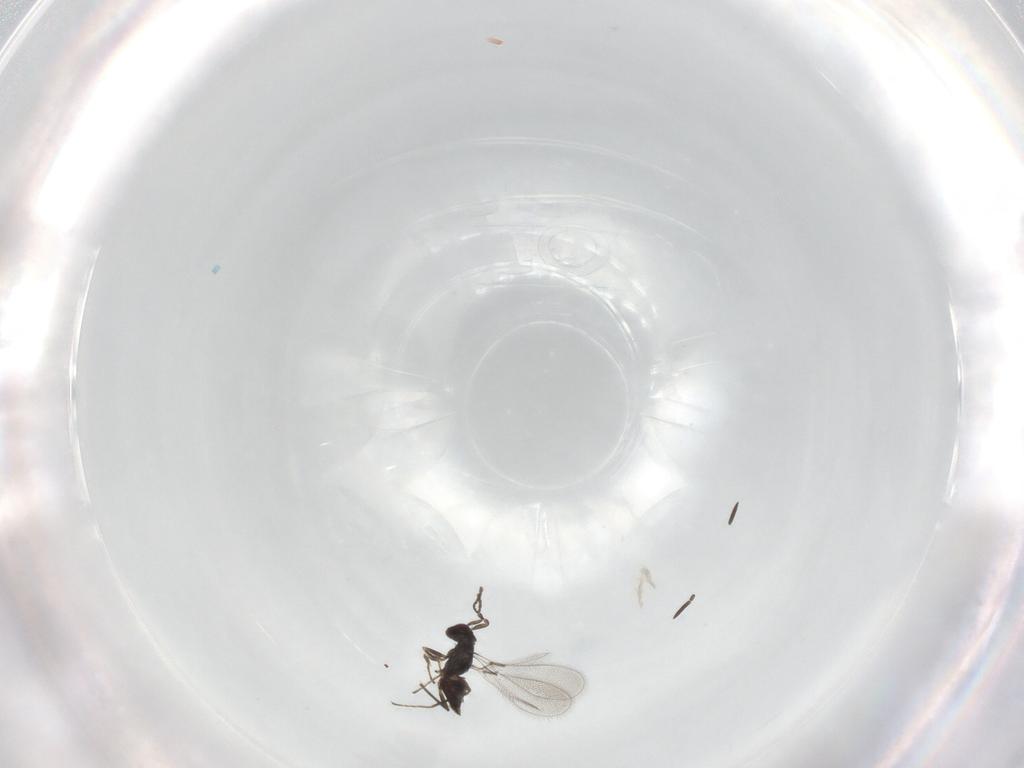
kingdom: Animalia
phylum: Arthropoda
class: Insecta
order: Hymenoptera
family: Mymaridae
